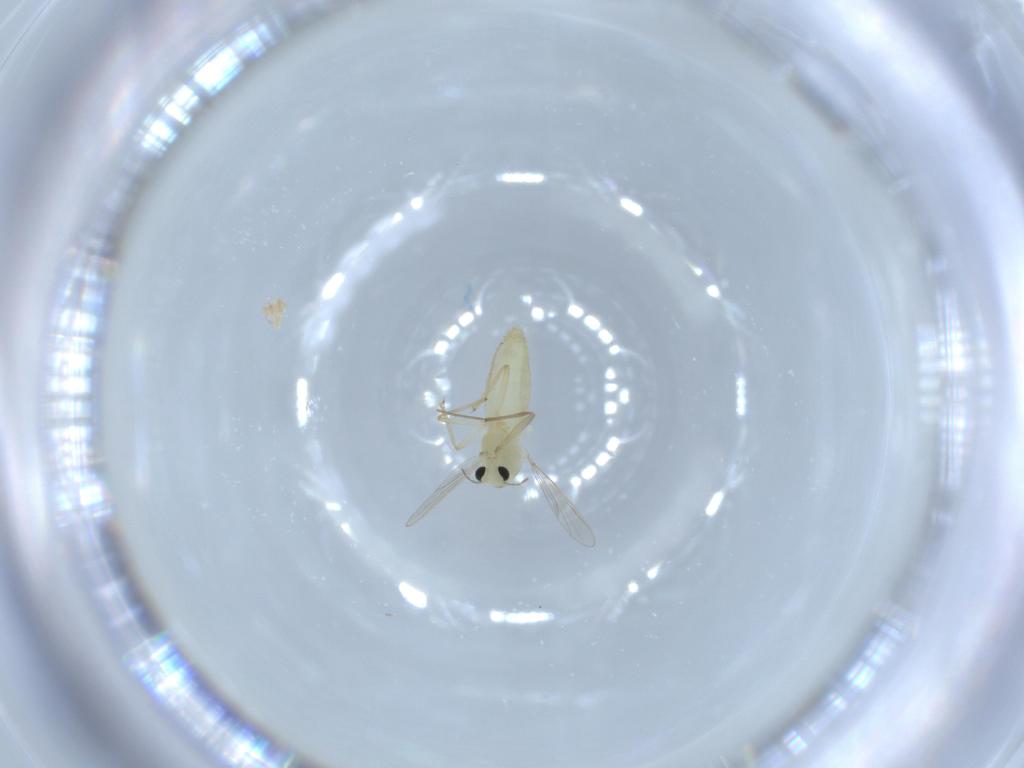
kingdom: Animalia
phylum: Arthropoda
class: Insecta
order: Diptera
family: Chironomidae
